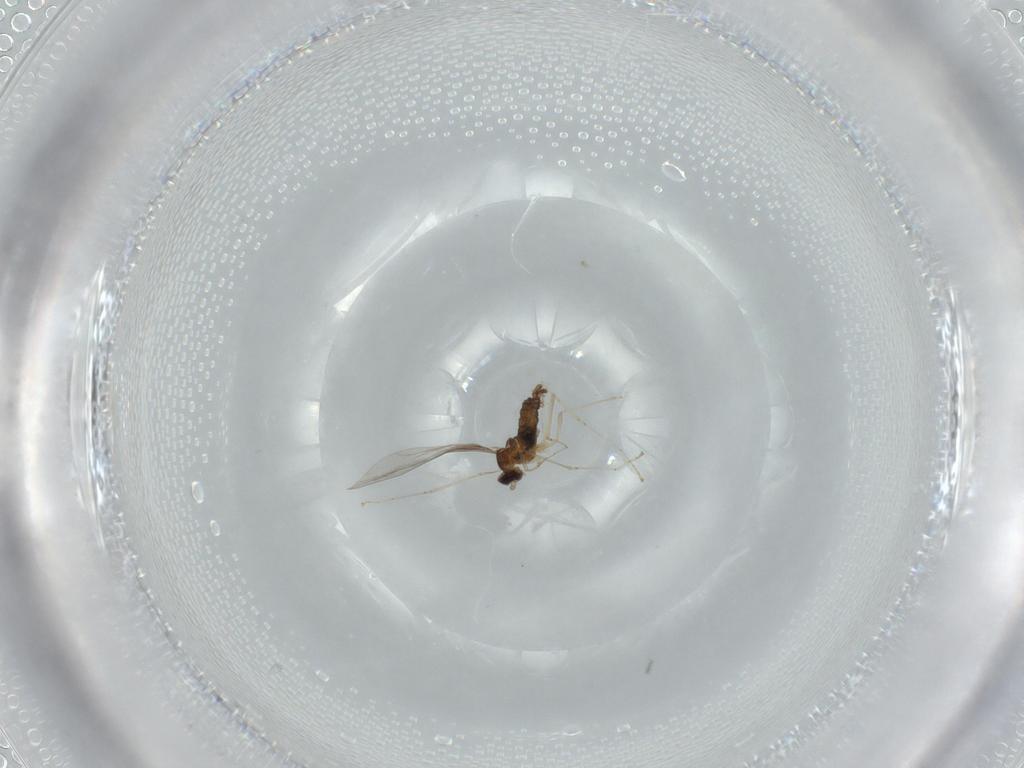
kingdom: Animalia
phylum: Arthropoda
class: Insecta
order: Diptera
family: Cecidomyiidae
